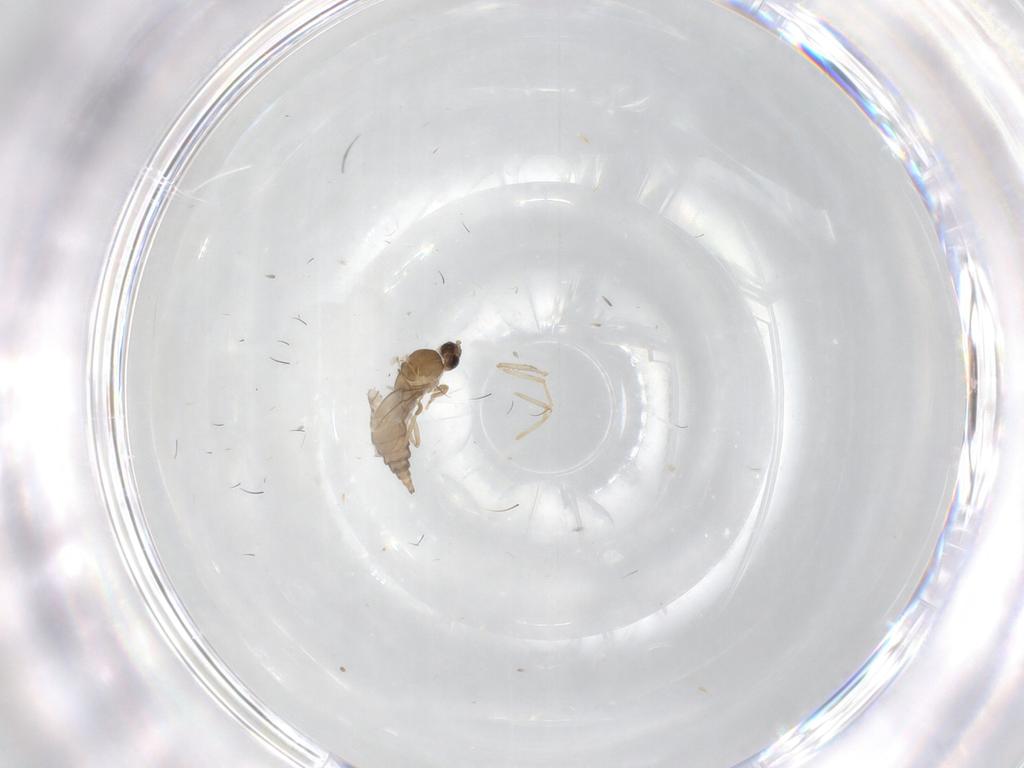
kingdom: Animalia
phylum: Arthropoda
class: Insecta
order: Diptera
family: Cecidomyiidae
